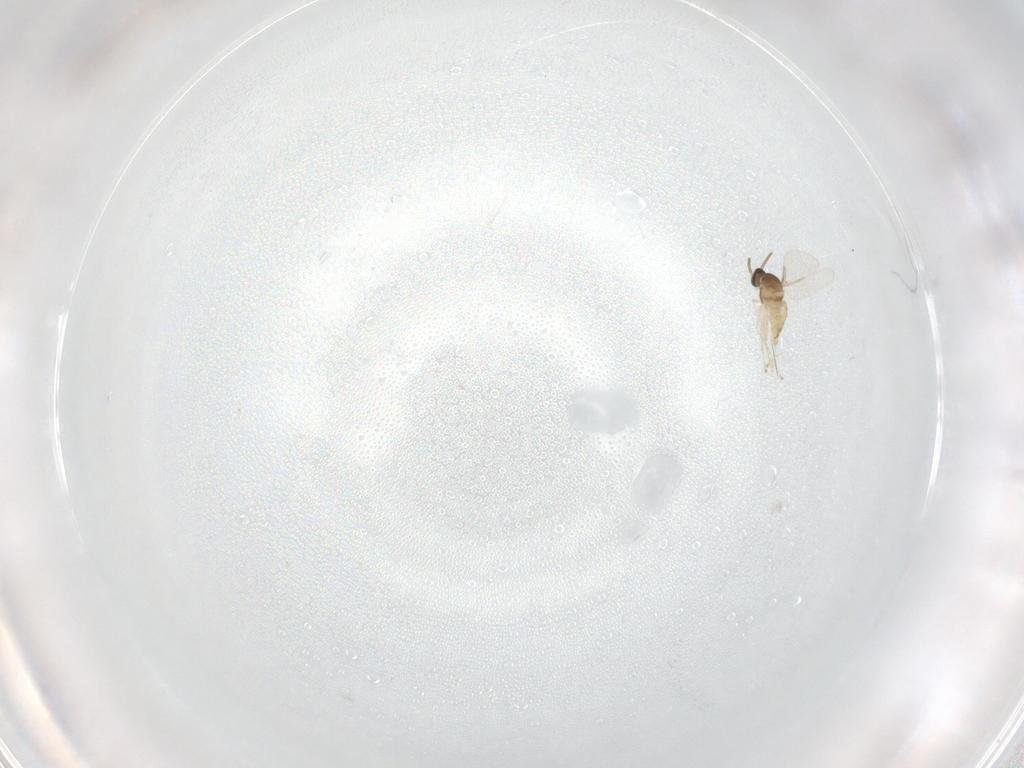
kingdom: Animalia
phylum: Arthropoda
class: Insecta
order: Diptera
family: Cecidomyiidae
